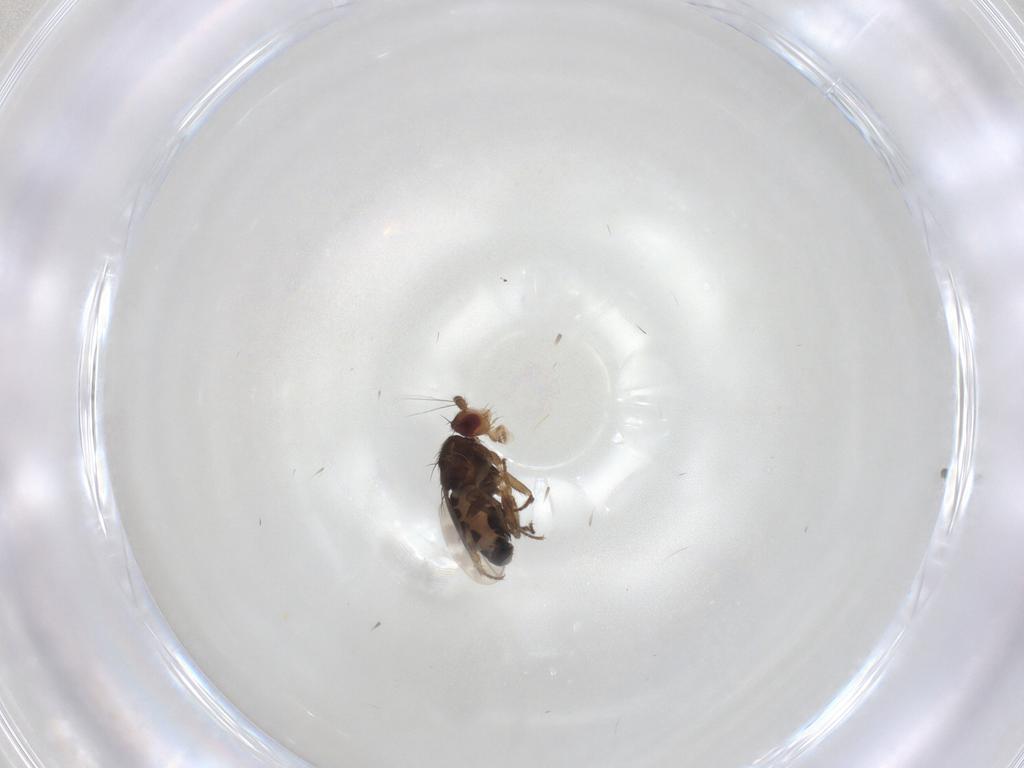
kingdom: Animalia
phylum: Arthropoda
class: Insecta
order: Diptera
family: Sphaeroceridae
